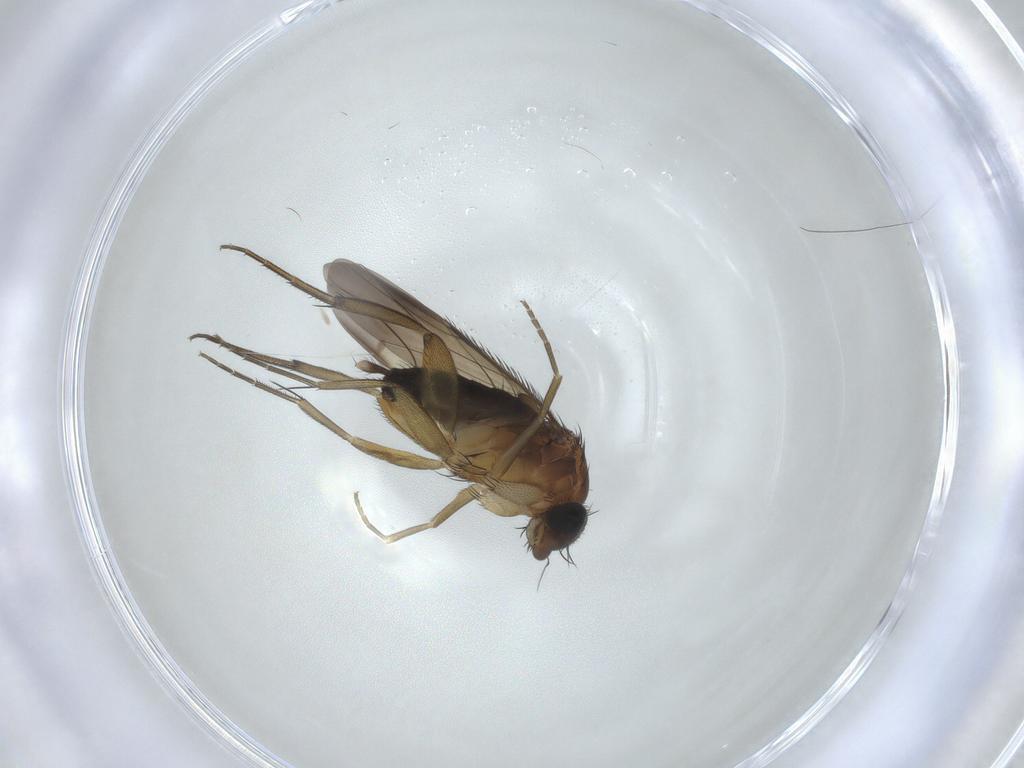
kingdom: Animalia
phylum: Arthropoda
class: Insecta
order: Diptera
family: Phoridae
